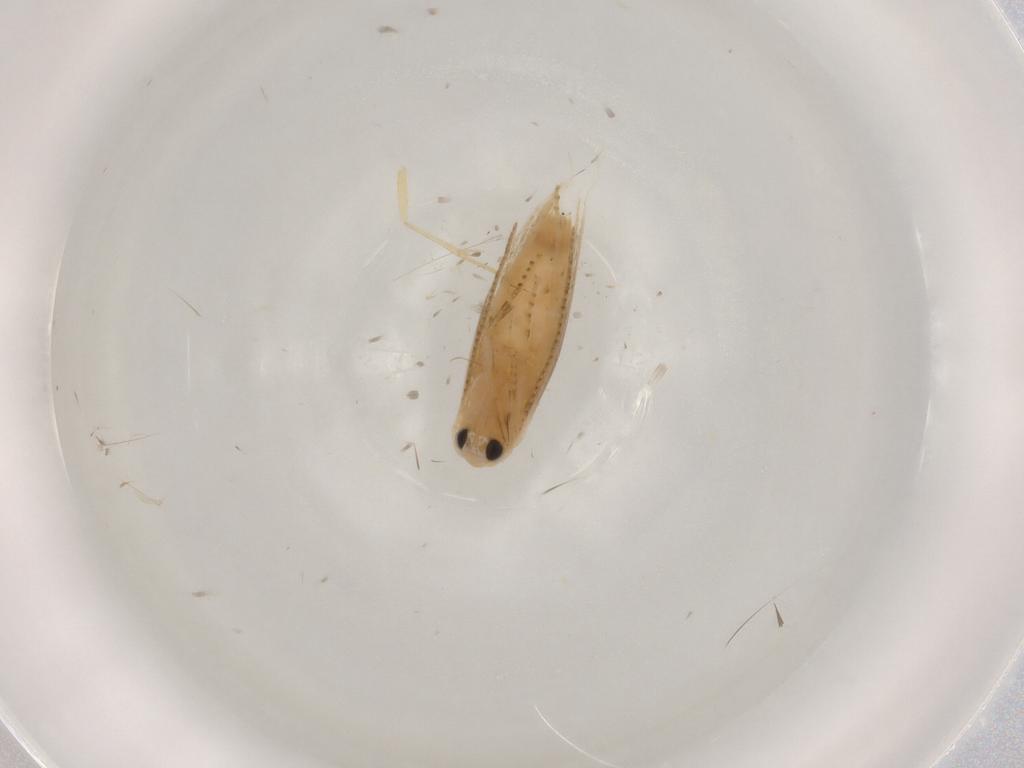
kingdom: Animalia
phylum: Arthropoda
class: Insecta
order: Lepidoptera
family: Bucculatricidae
